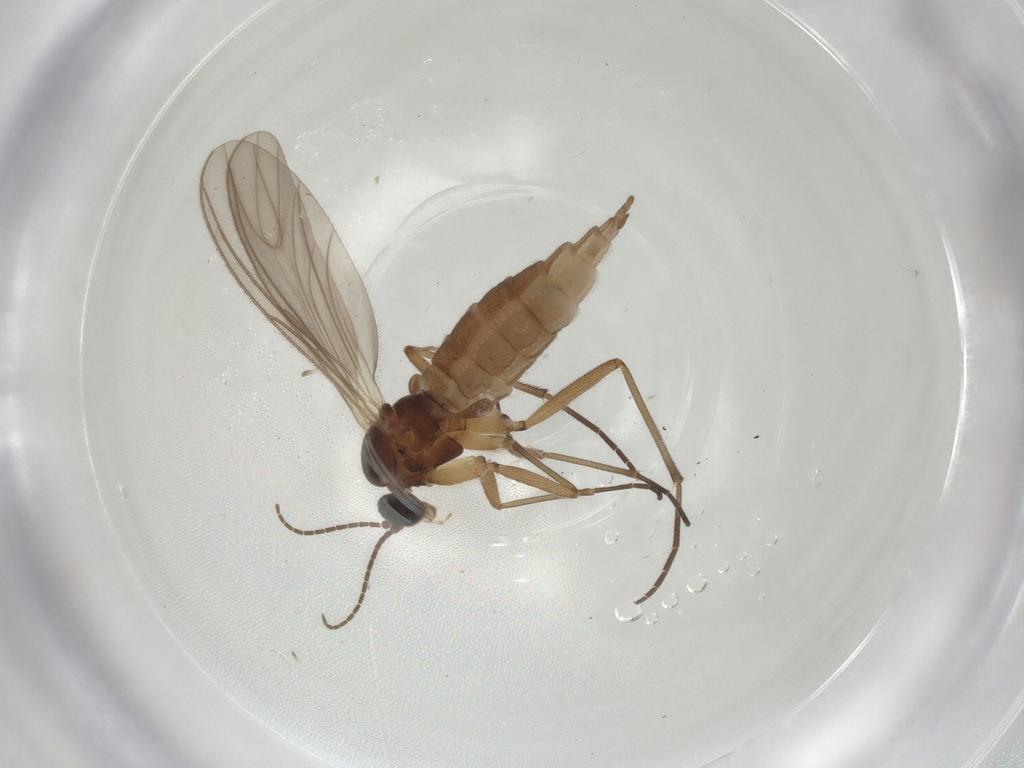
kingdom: Animalia
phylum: Arthropoda
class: Insecta
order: Diptera
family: Sciaridae
